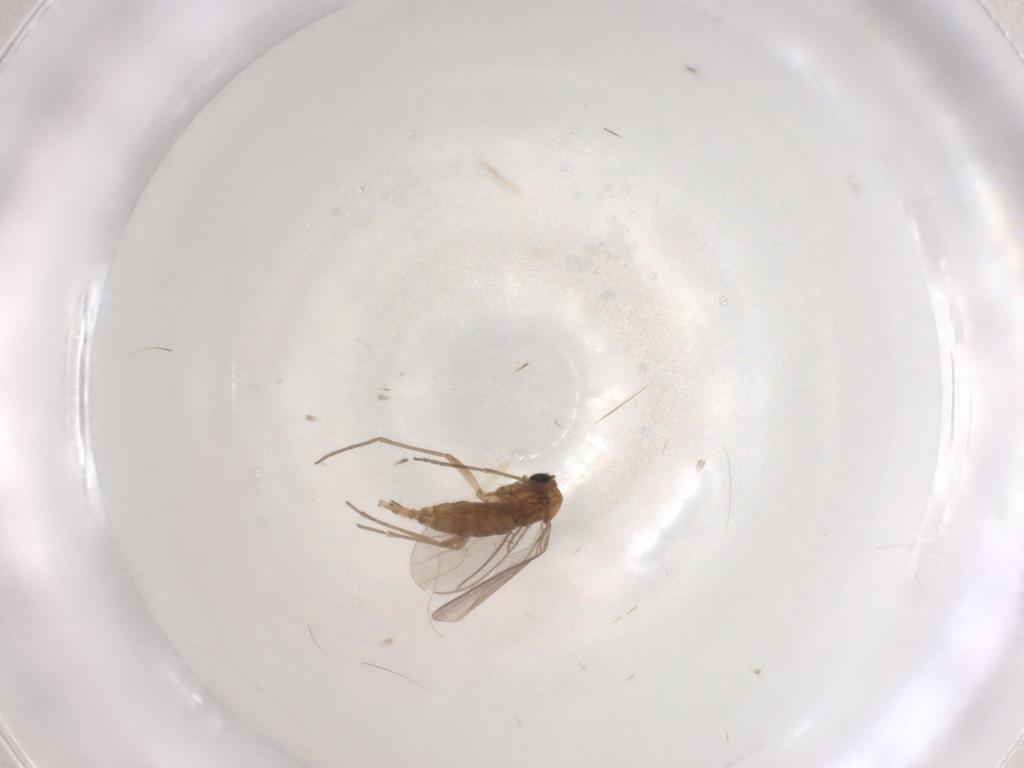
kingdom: Animalia
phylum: Arthropoda
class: Insecta
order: Diptera
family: Sciaridae
